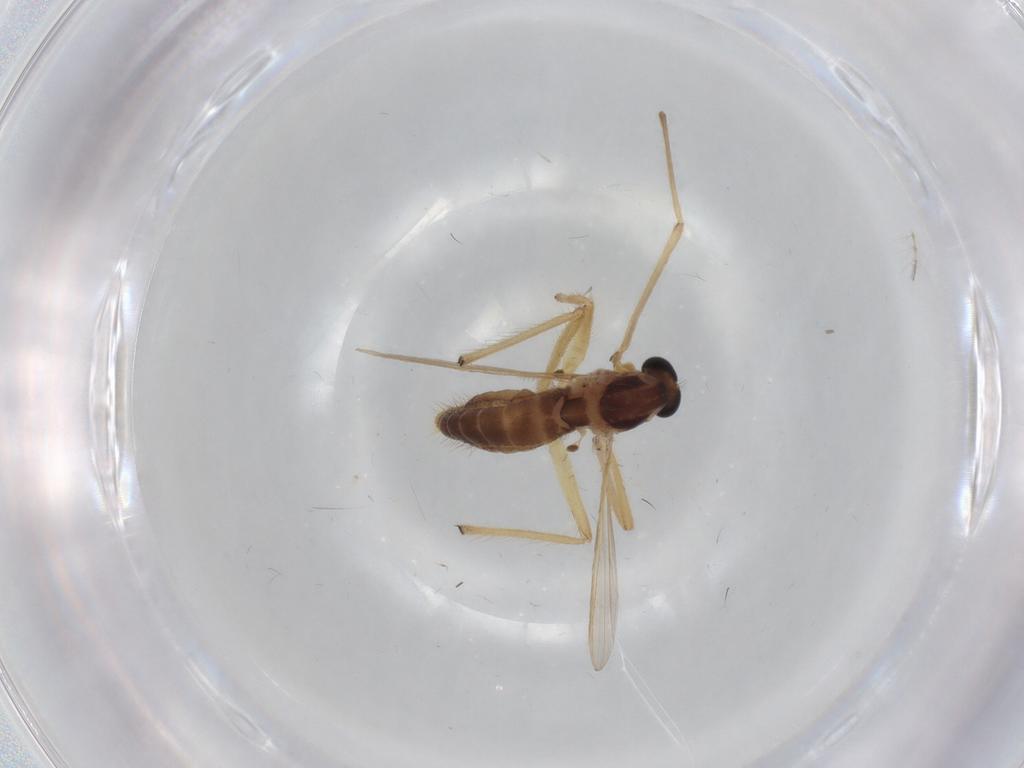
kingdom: Animalia
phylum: Arthropoda
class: Insecta
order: Diptera
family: Chironomidae
